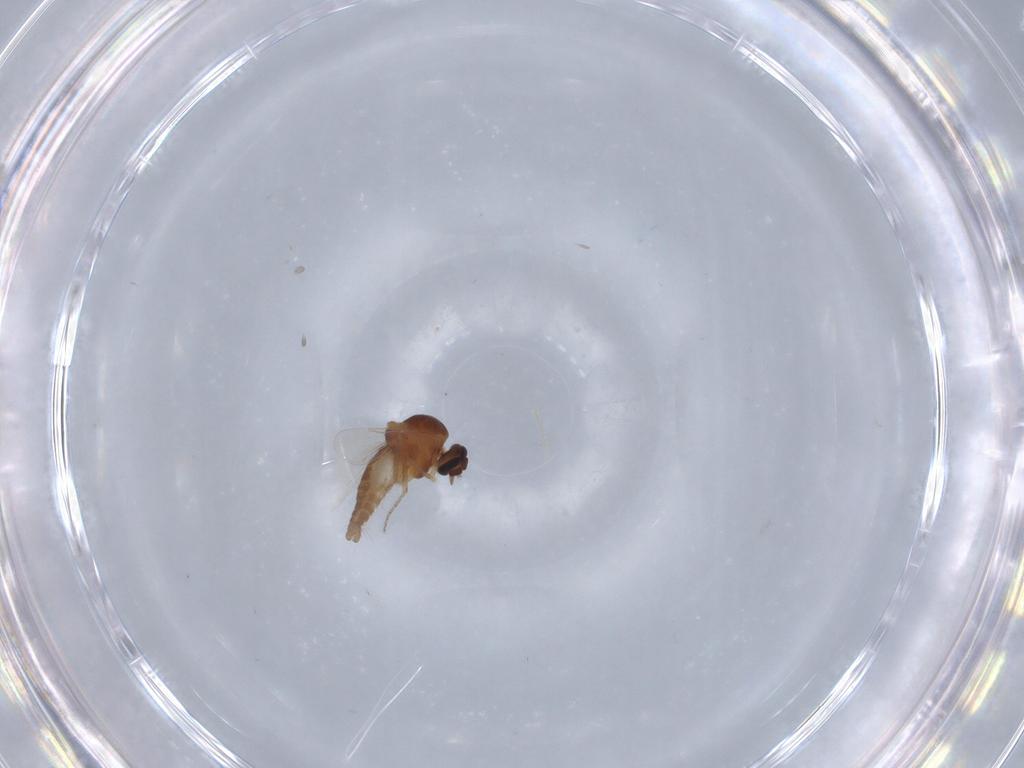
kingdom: Animalia
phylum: Arthropoda
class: Insecta
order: Diptera
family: Ceratopogonidae
